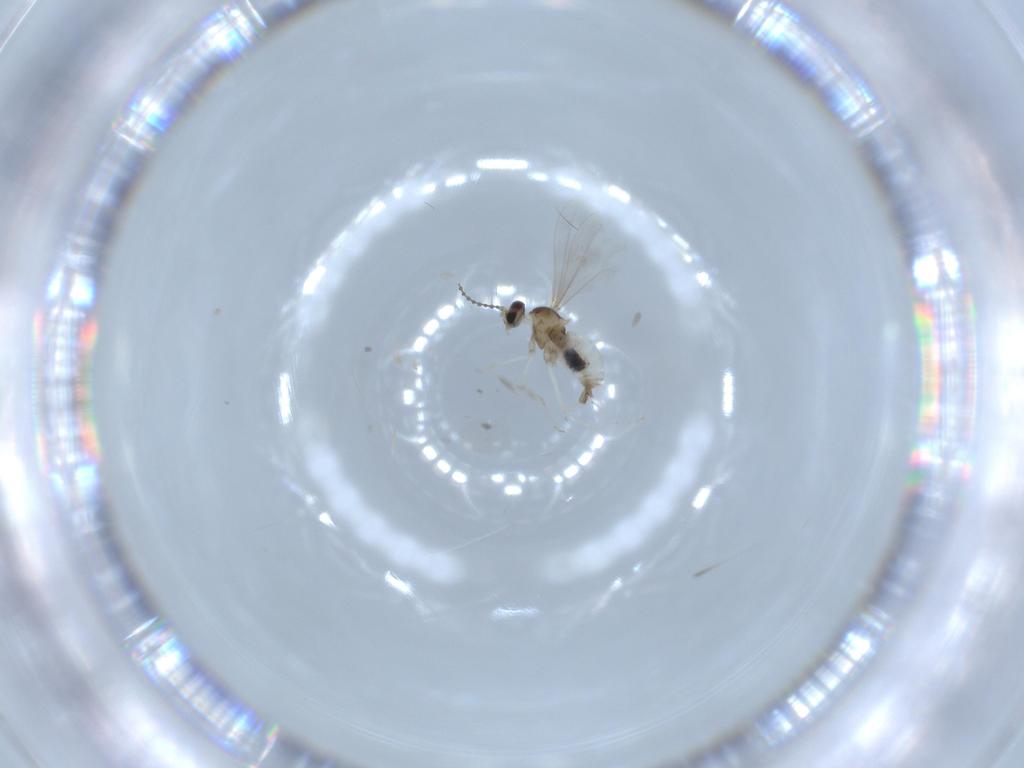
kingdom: Animalia
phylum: Arthropoda
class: Insecta
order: Diptera
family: Cecidomyiidae
